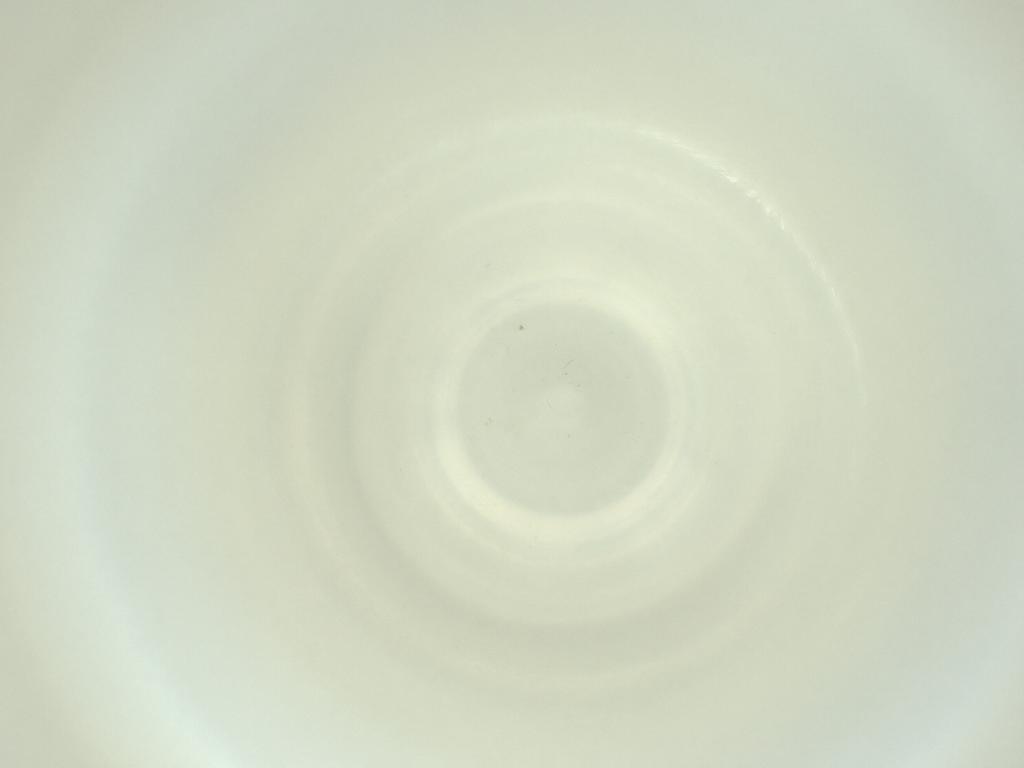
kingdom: Animalia
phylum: Arthropoda
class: Insecta
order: Diptera
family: Cecidomyiidae
